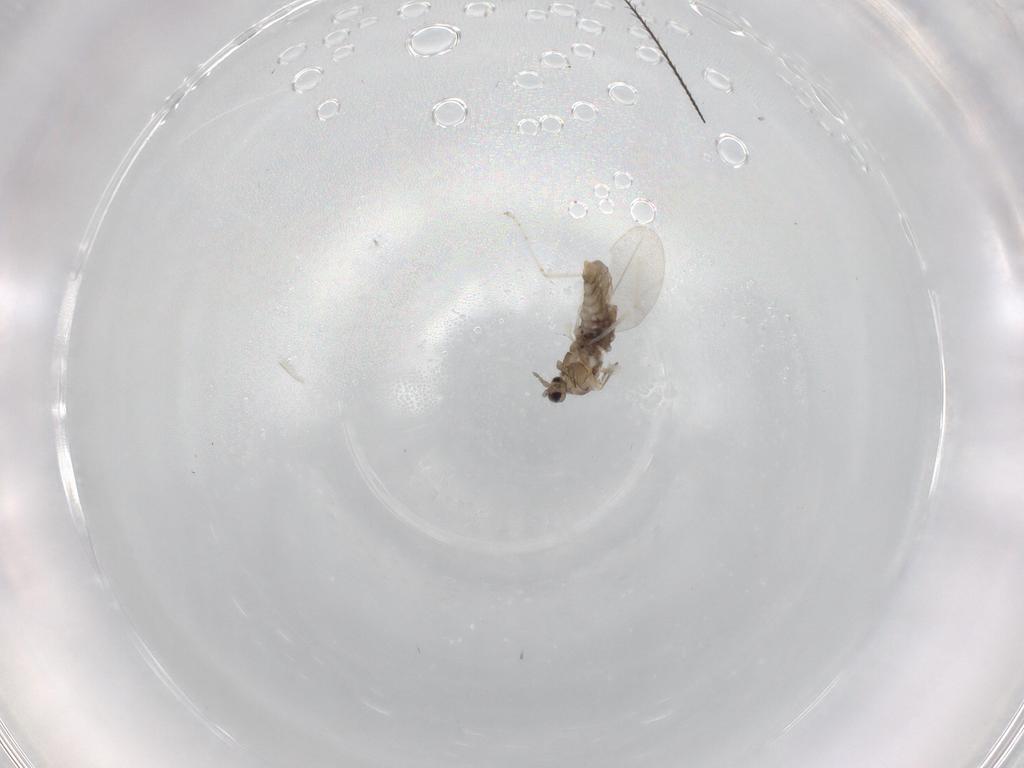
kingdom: Animalia
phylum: Arthropoda
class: Insecta
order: Diptera
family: Cecidomyiidae
